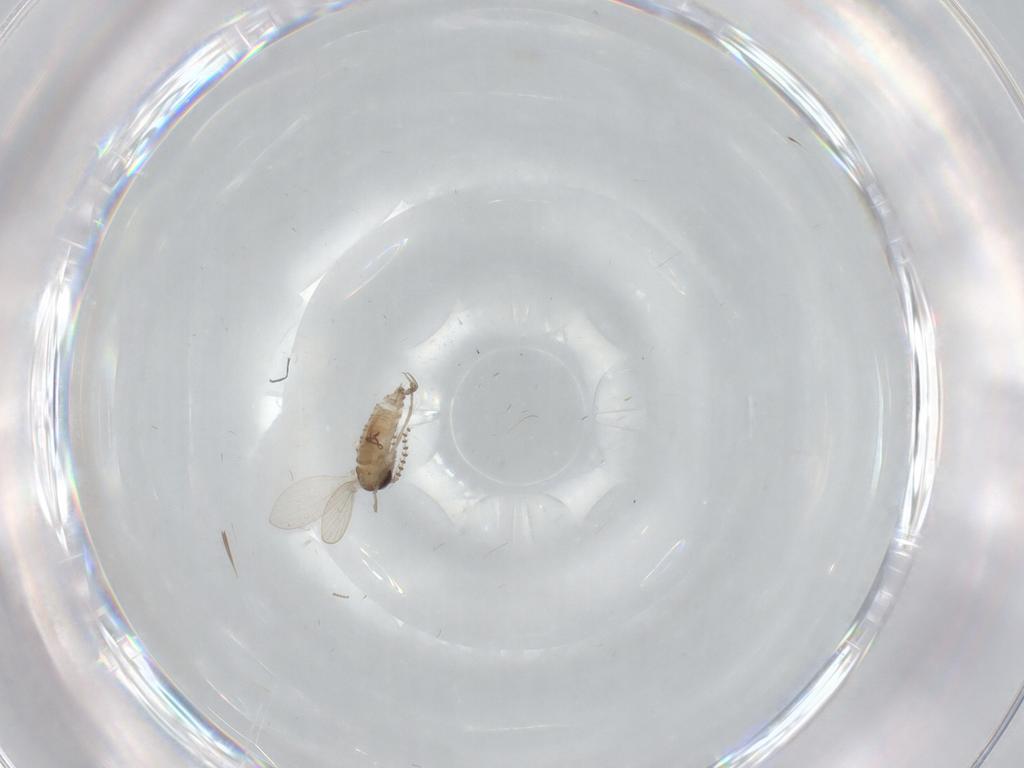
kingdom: Animalia
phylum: Arthropoda
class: Insecta
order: Diptera
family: Psychodidae
